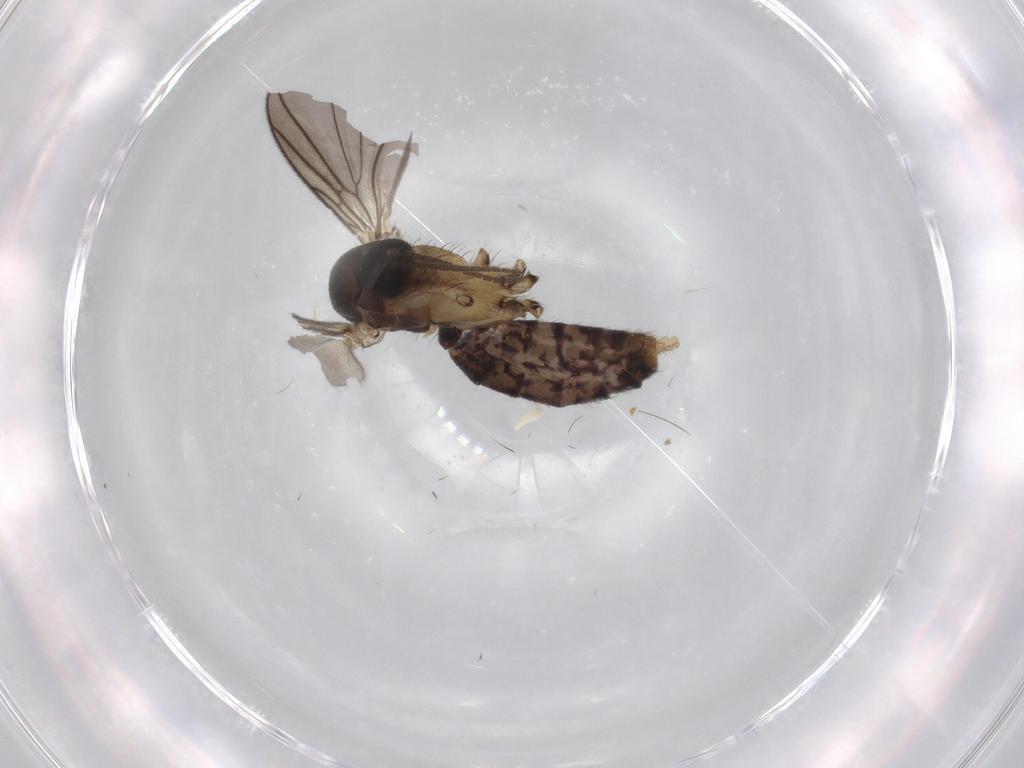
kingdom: Animalia
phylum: Arthropoda
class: Insecta
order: Diptera
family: Mycetophilidae
